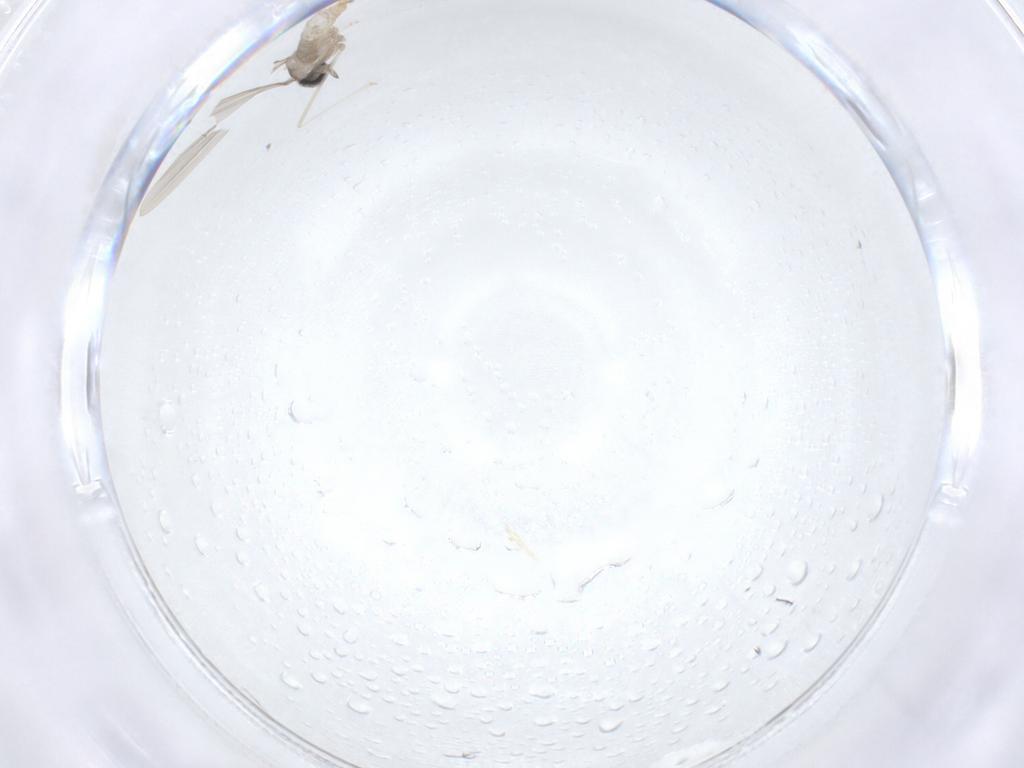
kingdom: Animalia
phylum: Arthropoda
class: Insecta
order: Diptera
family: Cecidomyiidae
